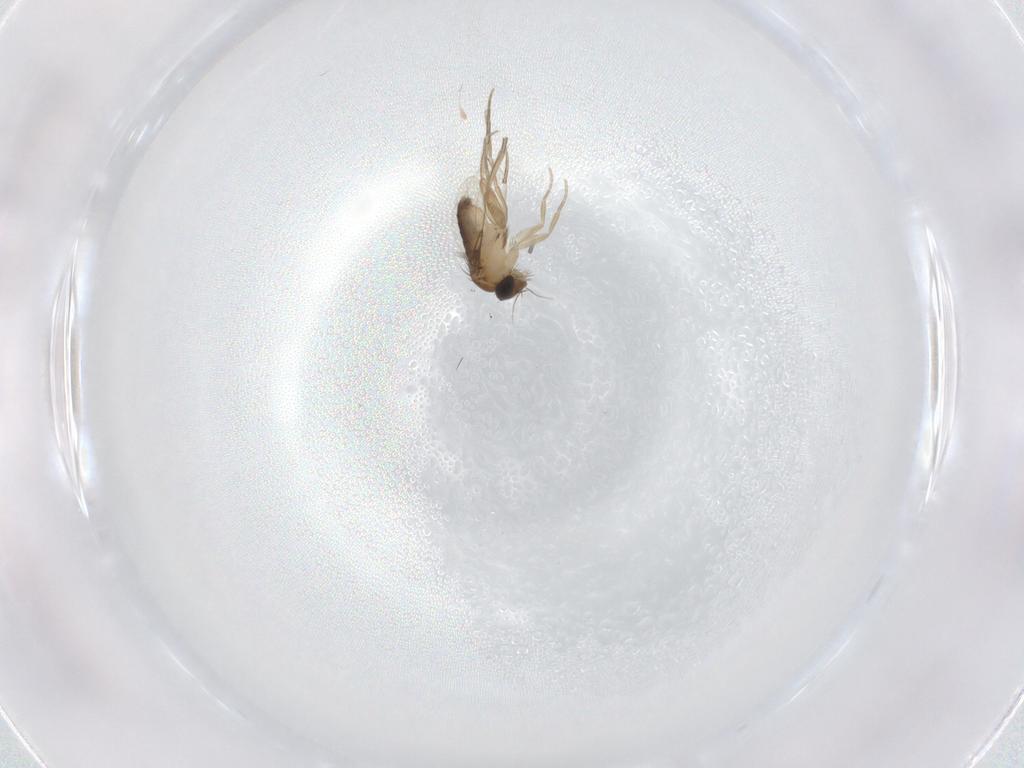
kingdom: Animalia
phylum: Arthropoda
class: Insecta
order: Diptera
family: Phoridae
